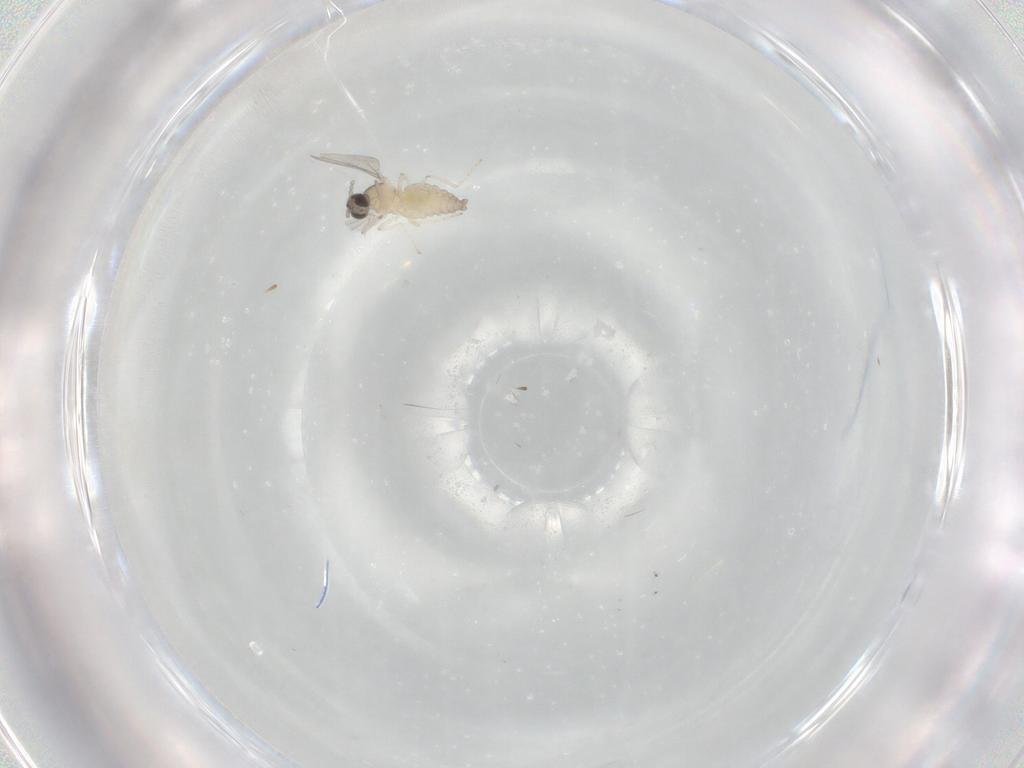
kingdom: Animalia
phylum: Arthropoda
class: Insecta
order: Diptera
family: Cecidomyiidae
